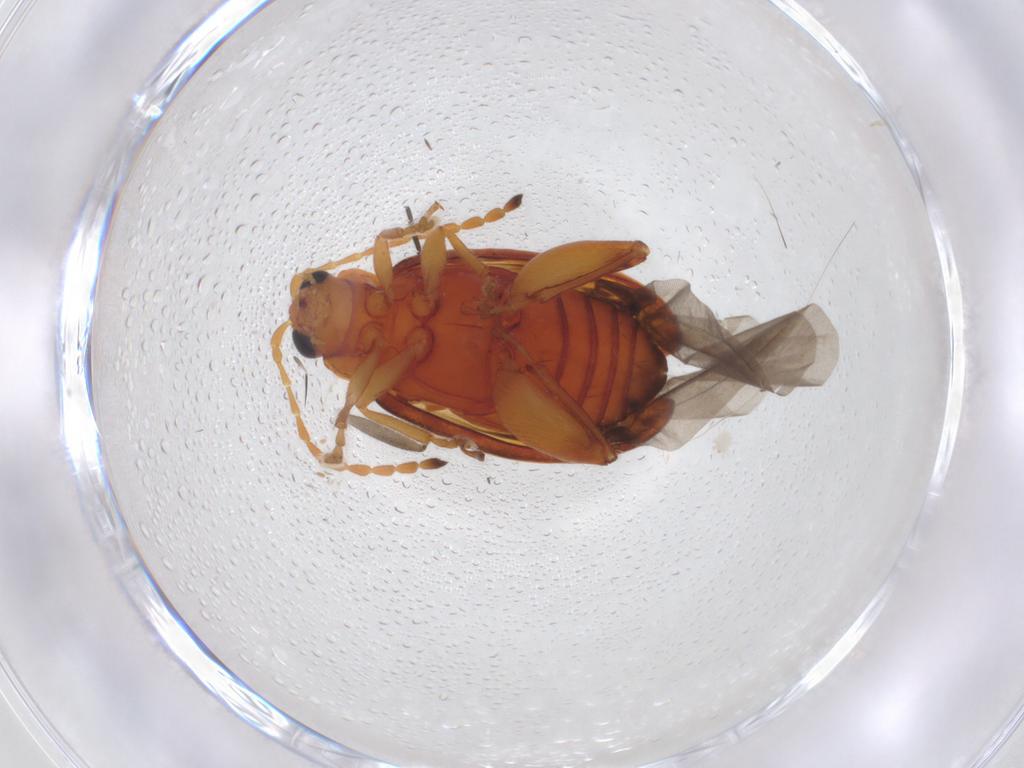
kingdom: Animalia
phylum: Arthropoda
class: Insecta
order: Coleoptera
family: Chrysomelidae
